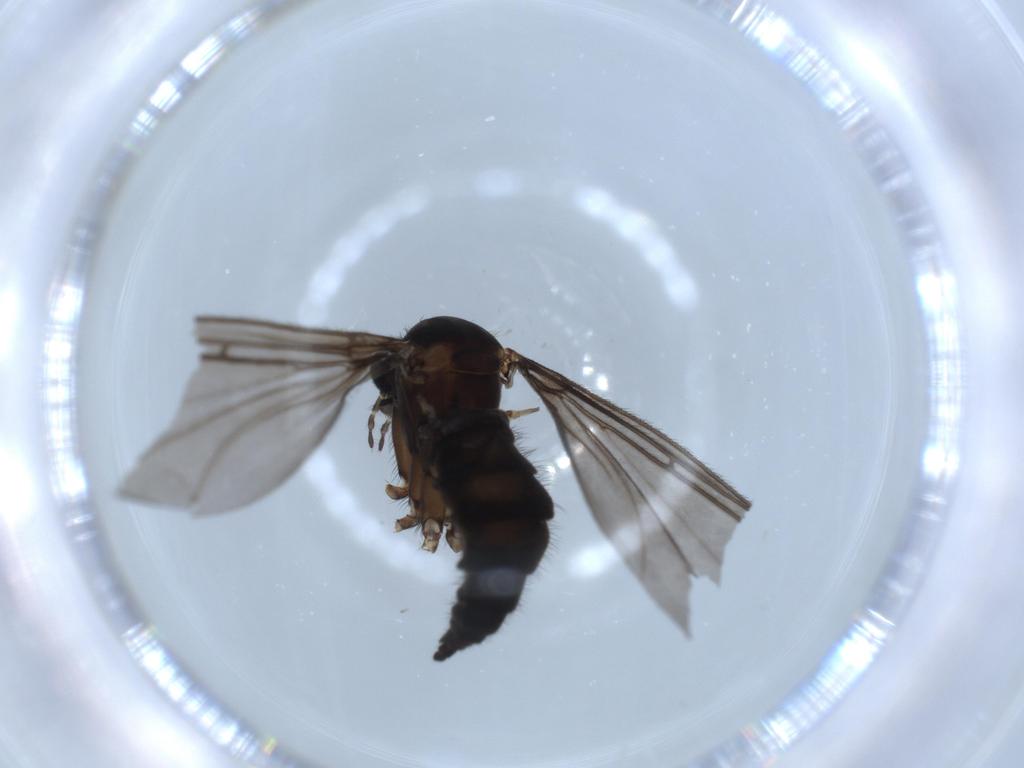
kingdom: Animalia
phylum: Arthropoda
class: Insecta
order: Diptera
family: Sciaridae
